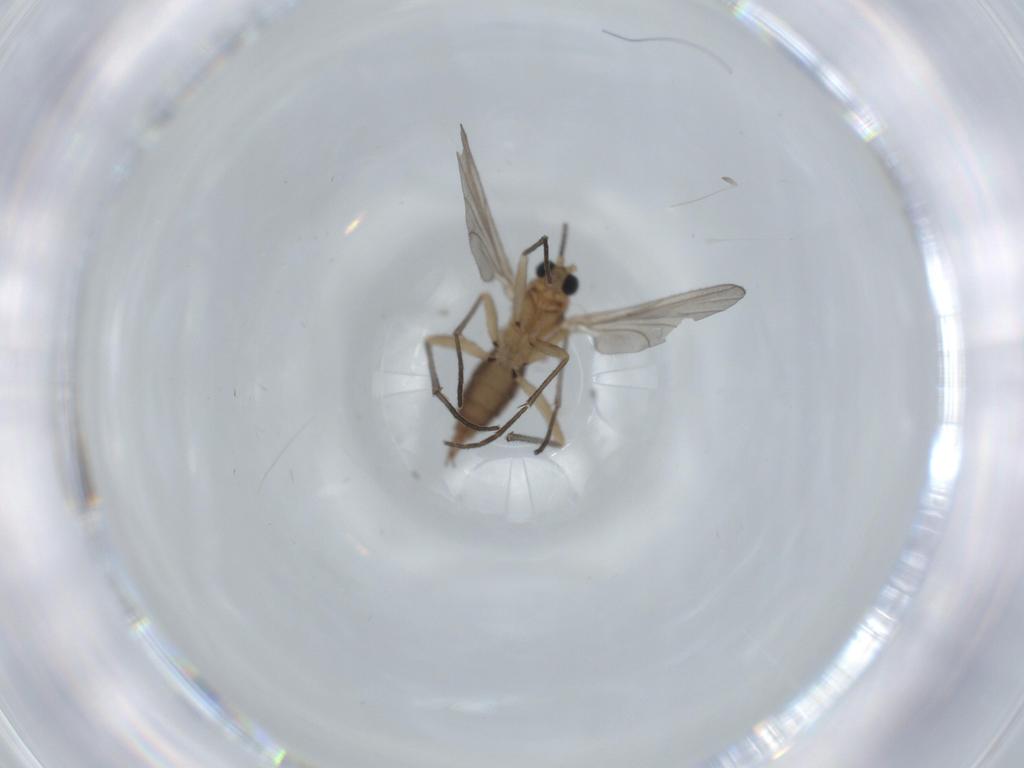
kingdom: Animalia
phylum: Arthropoda
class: Insecta
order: Diptera
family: Sciaridae
